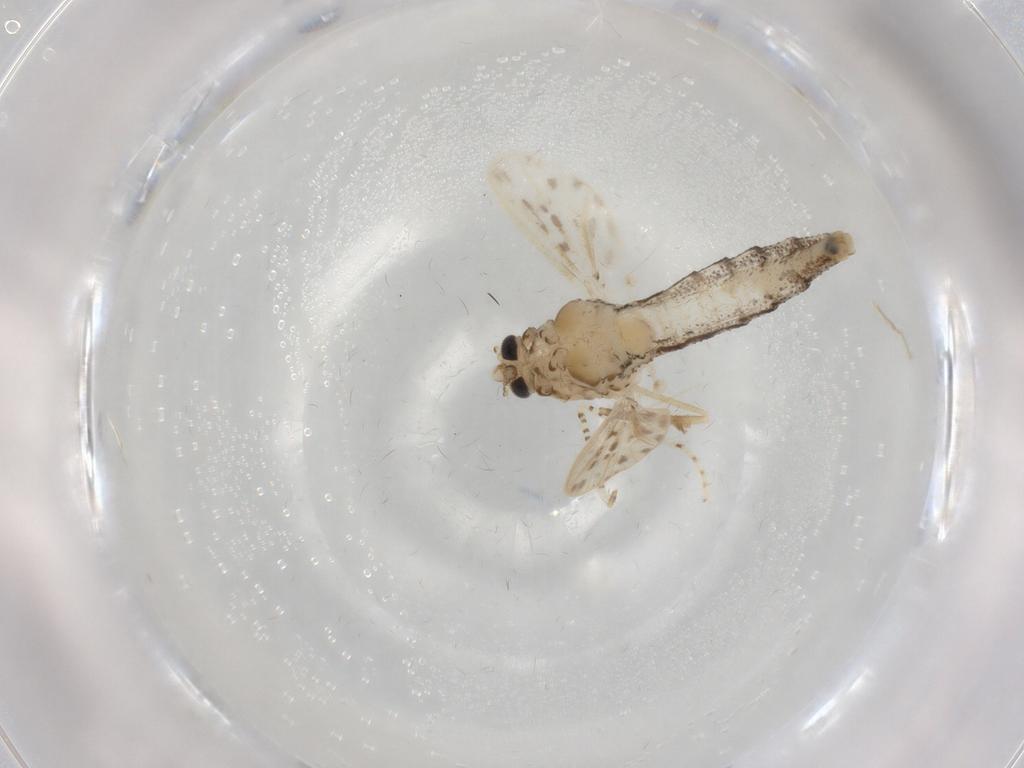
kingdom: Animalia
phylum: Arthropoda
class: Insecta
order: Diptera
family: Chaoboridae
